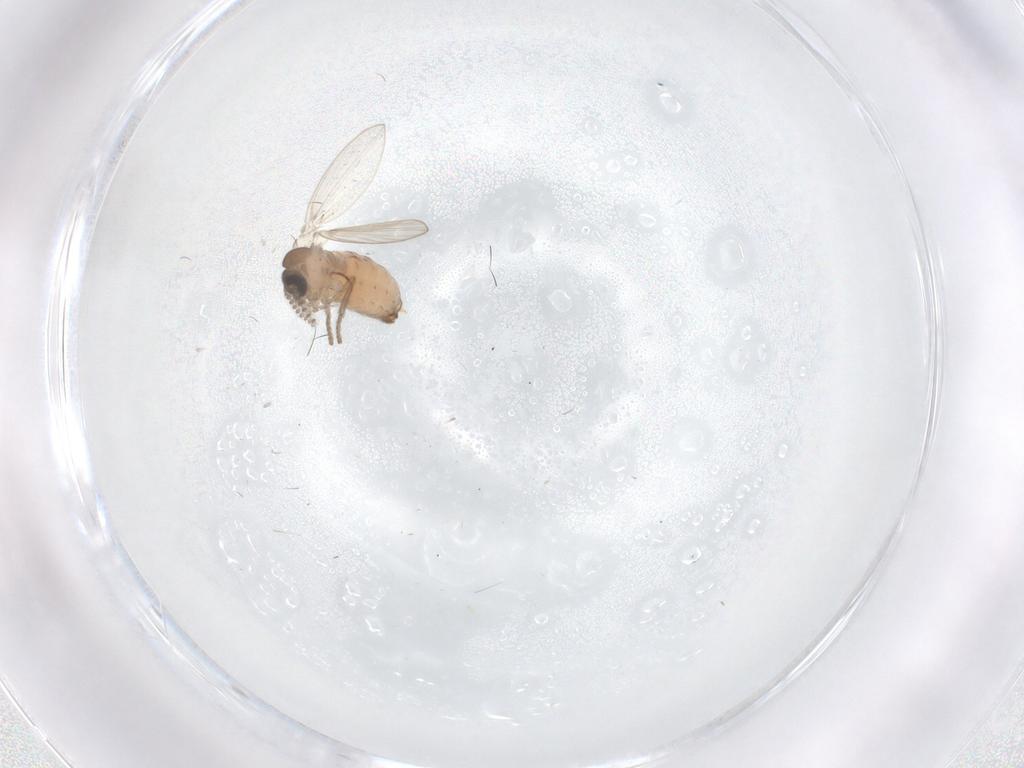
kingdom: Animalia
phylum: Arthropoda
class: Insecta
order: Diptera
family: Psychodidae
